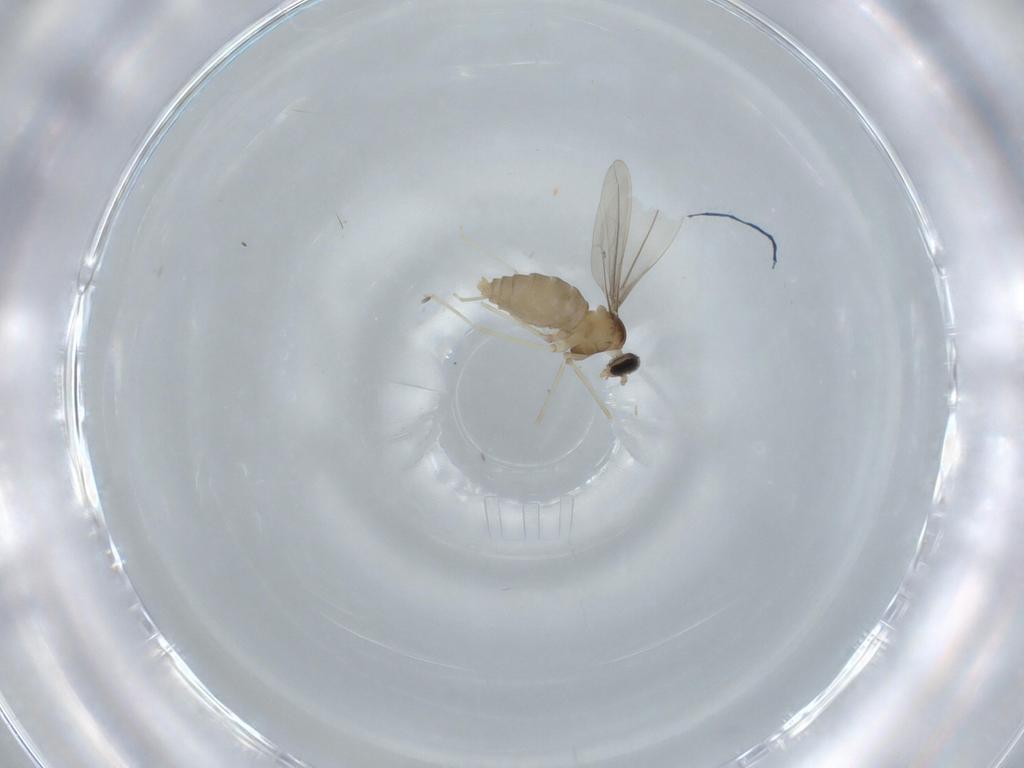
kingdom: Animalia
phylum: Arthropoda
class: Insecta
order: Diptera
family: Cecidomyiidae
